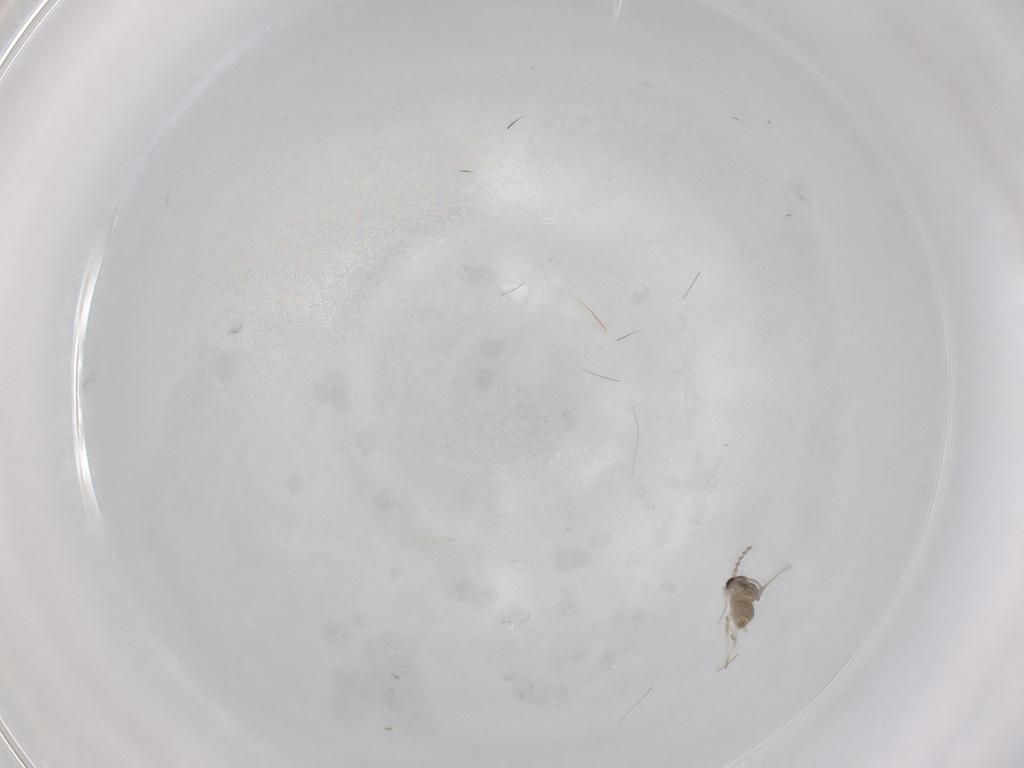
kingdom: Animalia
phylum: Arthropoda
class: Insecta
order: Diptera
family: Cecidomyiidae
